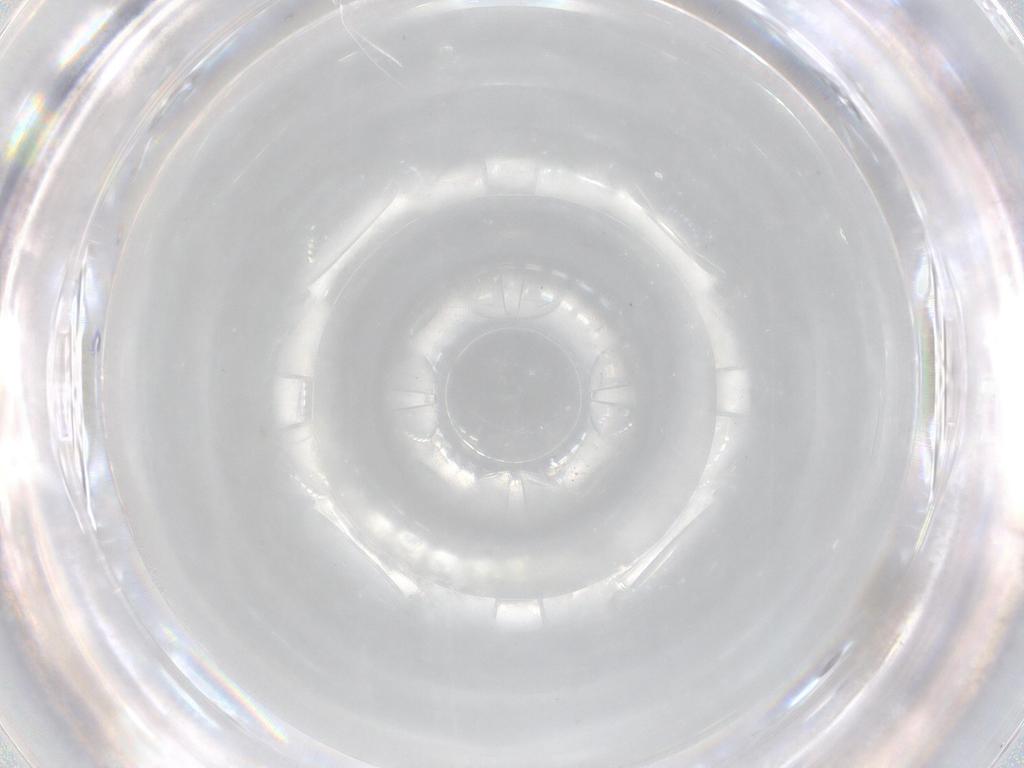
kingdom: Animalia
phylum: Arthropoda
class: Insecta
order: Diptera
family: Cecidomyiidae
